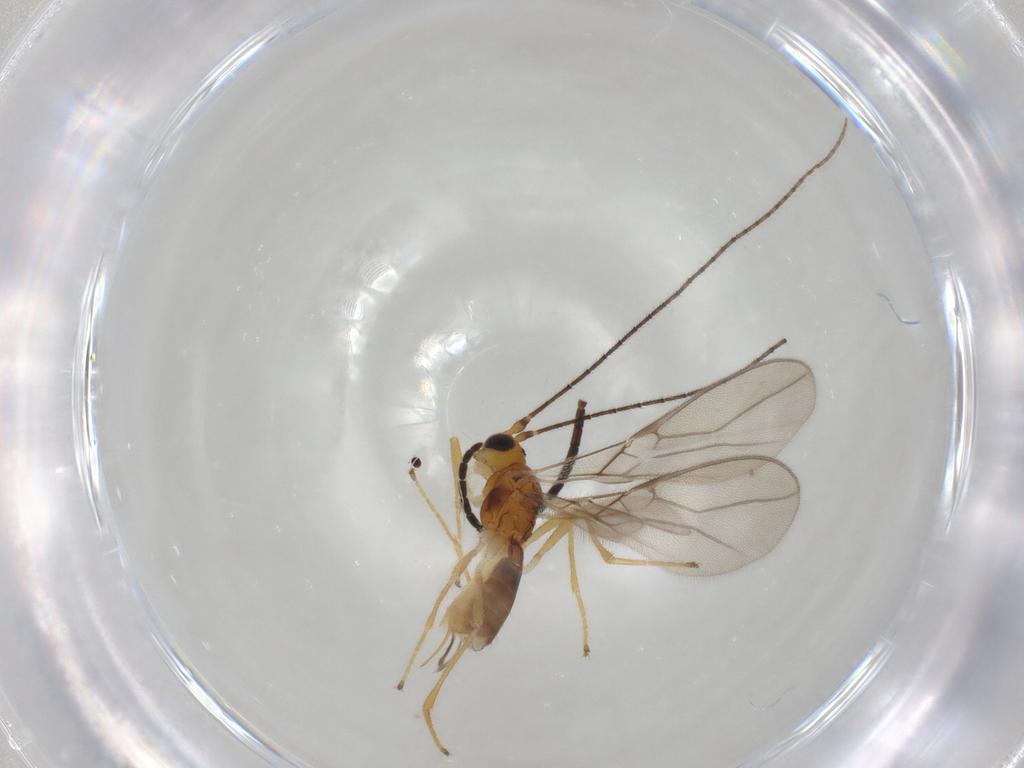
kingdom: Animalia
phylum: Arthropoda
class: Insecta
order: Hymenoptera
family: Braconidae
